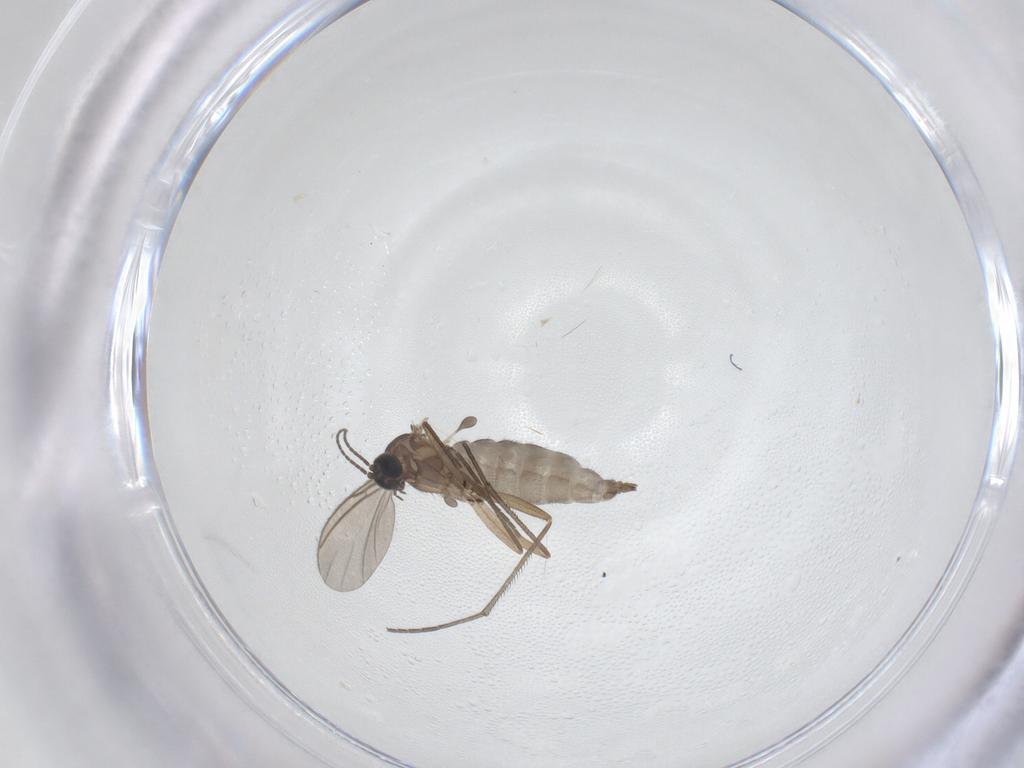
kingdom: Animalia
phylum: Arthropoda
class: Insecta
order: Diptera
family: Sciaridae
